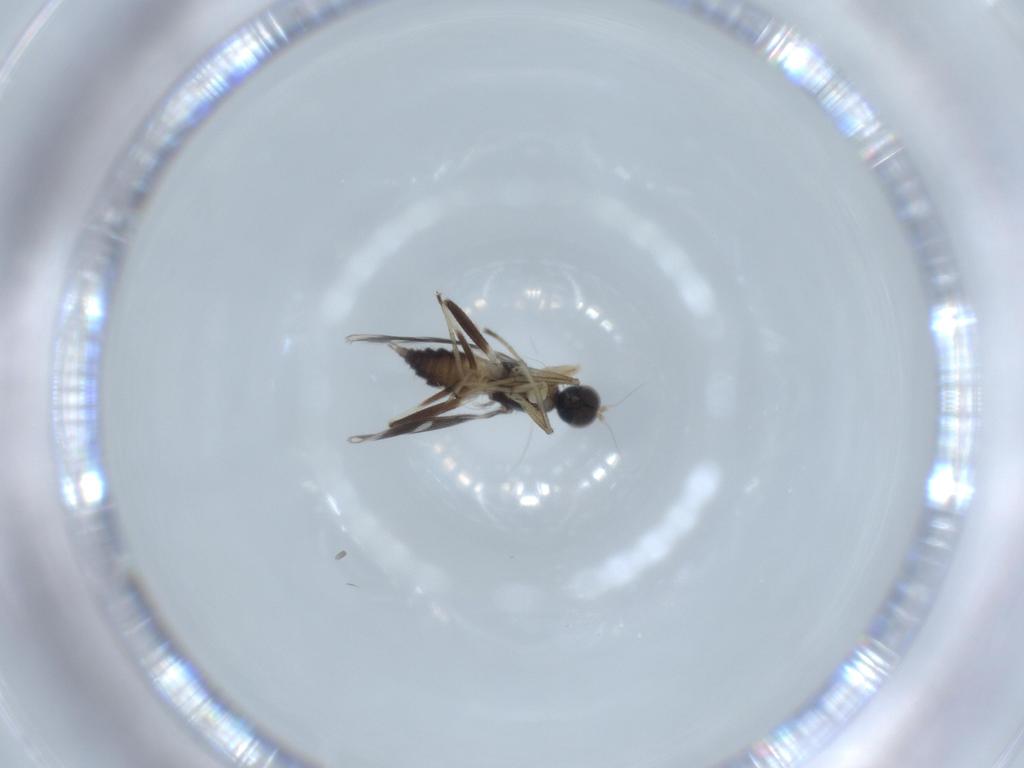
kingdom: Animalia
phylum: Arthropoda
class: Insecta
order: Diptera
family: Hybotidae
